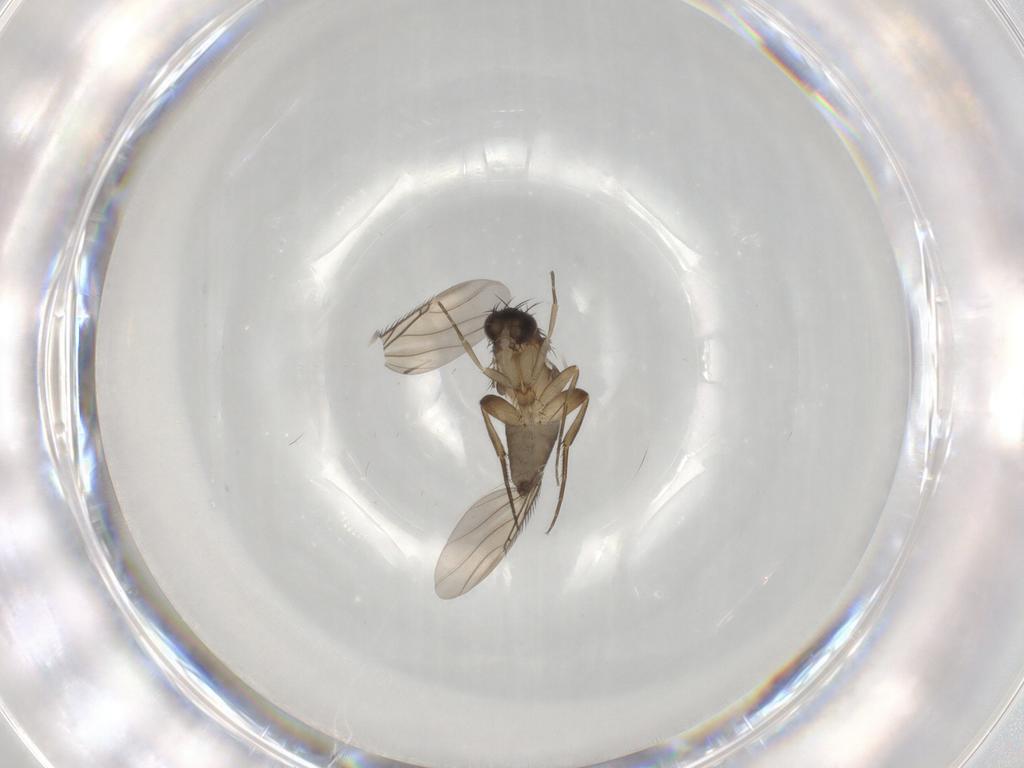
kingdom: Animalia
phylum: Arthropoda
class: Insecta
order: Diptera
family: Phoridae
